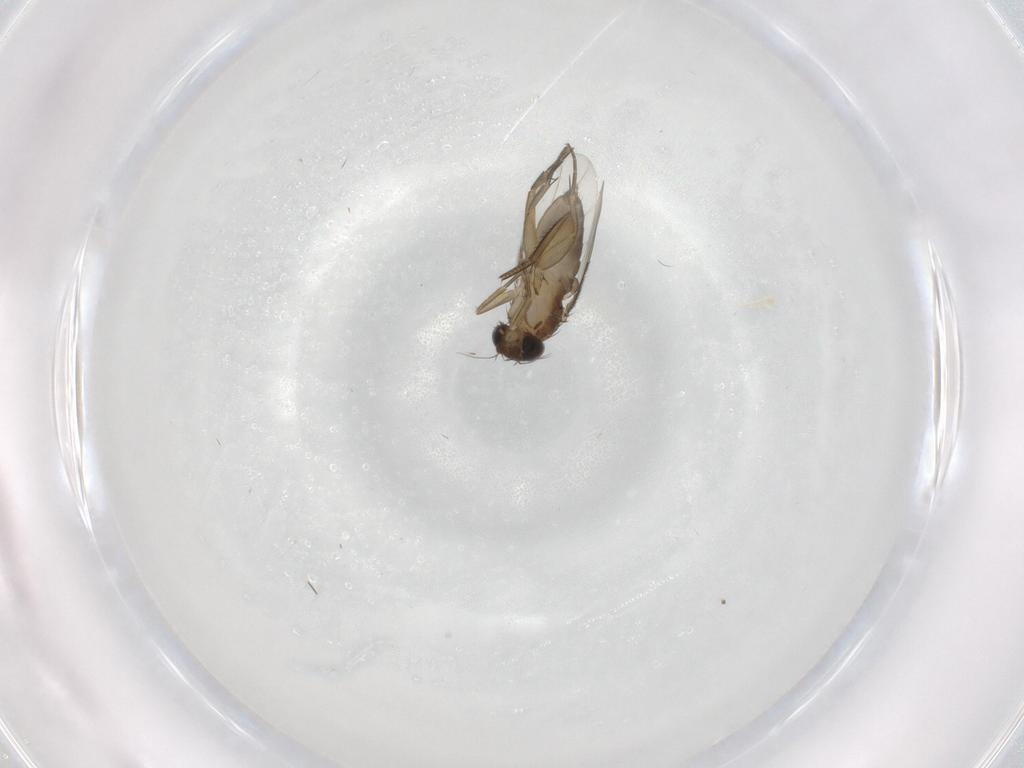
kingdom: Animalia
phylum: Arthropoda
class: Insecta
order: Diptera
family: Phoridae
